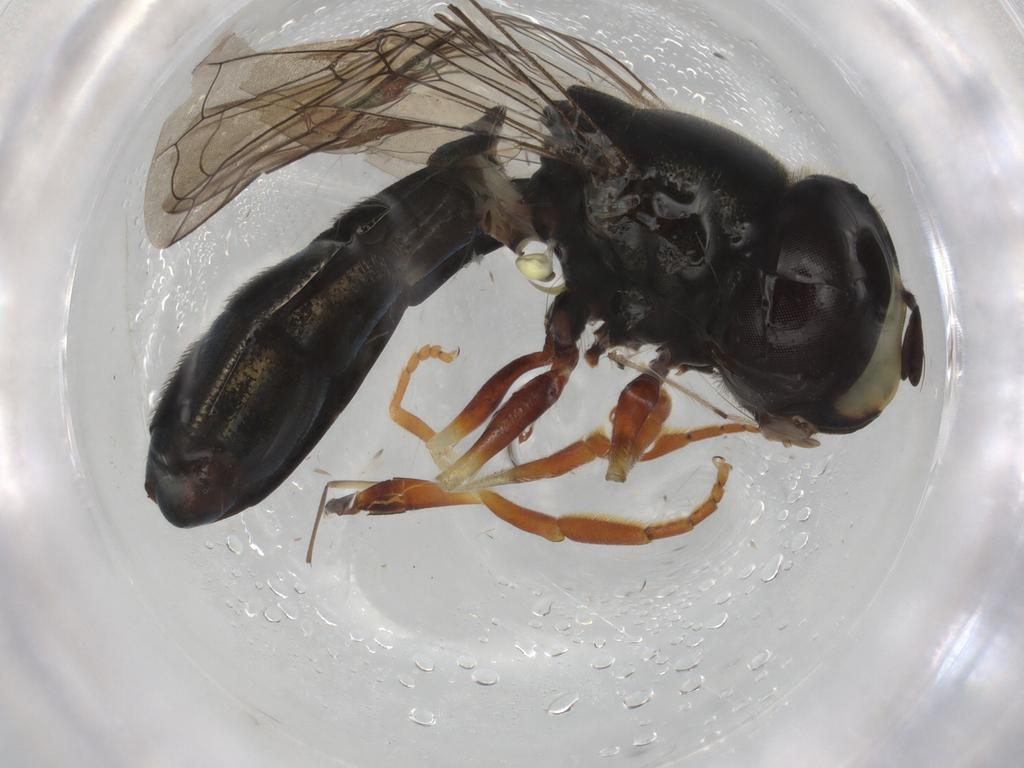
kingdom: Animalia
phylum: Arthropoda
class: Insecta
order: Diptera
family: Tachinidae
